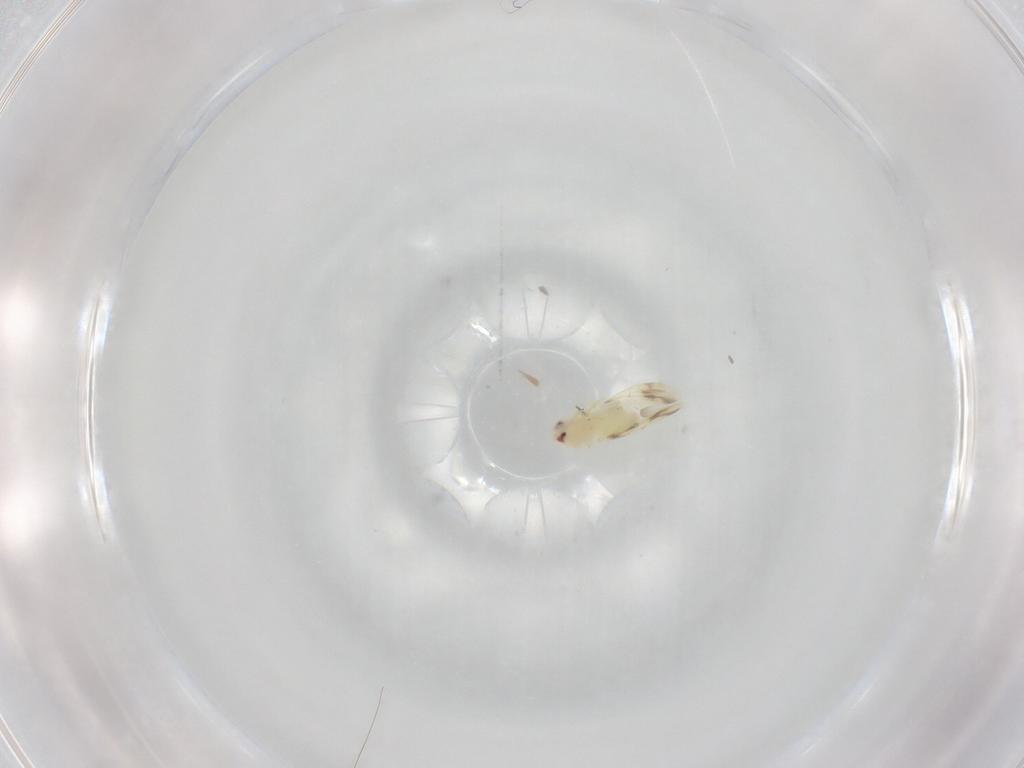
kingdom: Animalia
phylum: Arthropoda
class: Insecta
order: Hemiptera
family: Aleyrodidae
